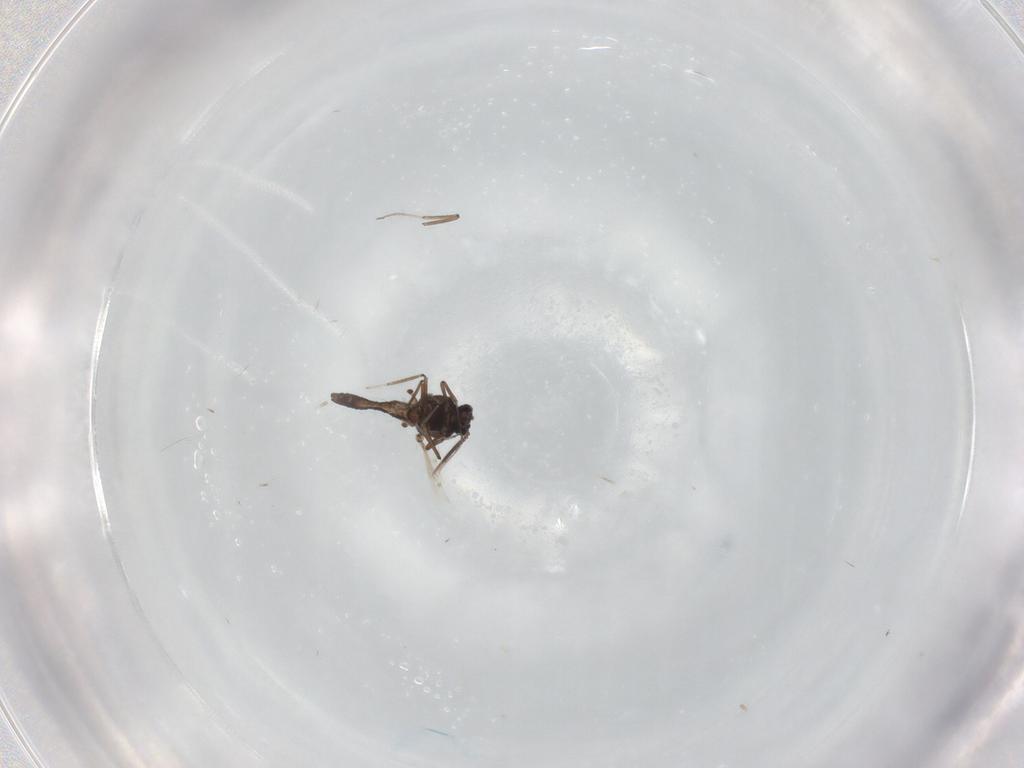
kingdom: Animalia
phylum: Arthropoda
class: Insecta
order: Diptera
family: Ceratopogonidae
